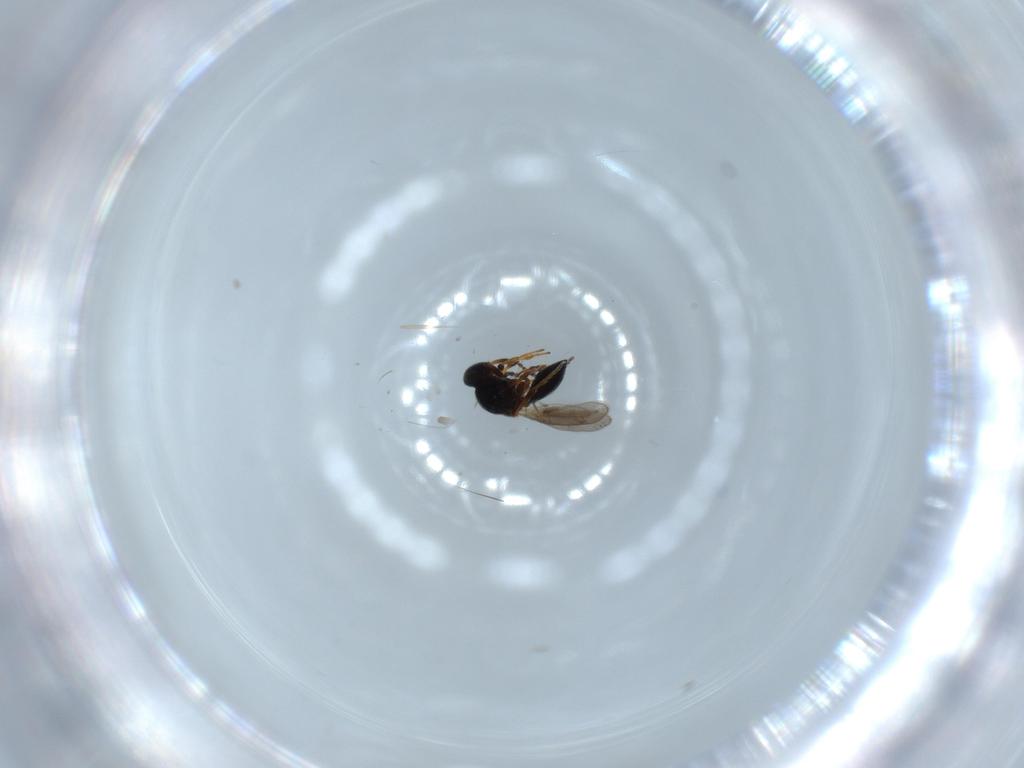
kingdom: Animalia
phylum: Arthropoda
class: Insecta
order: Hymenoptera
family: Platygastridae
